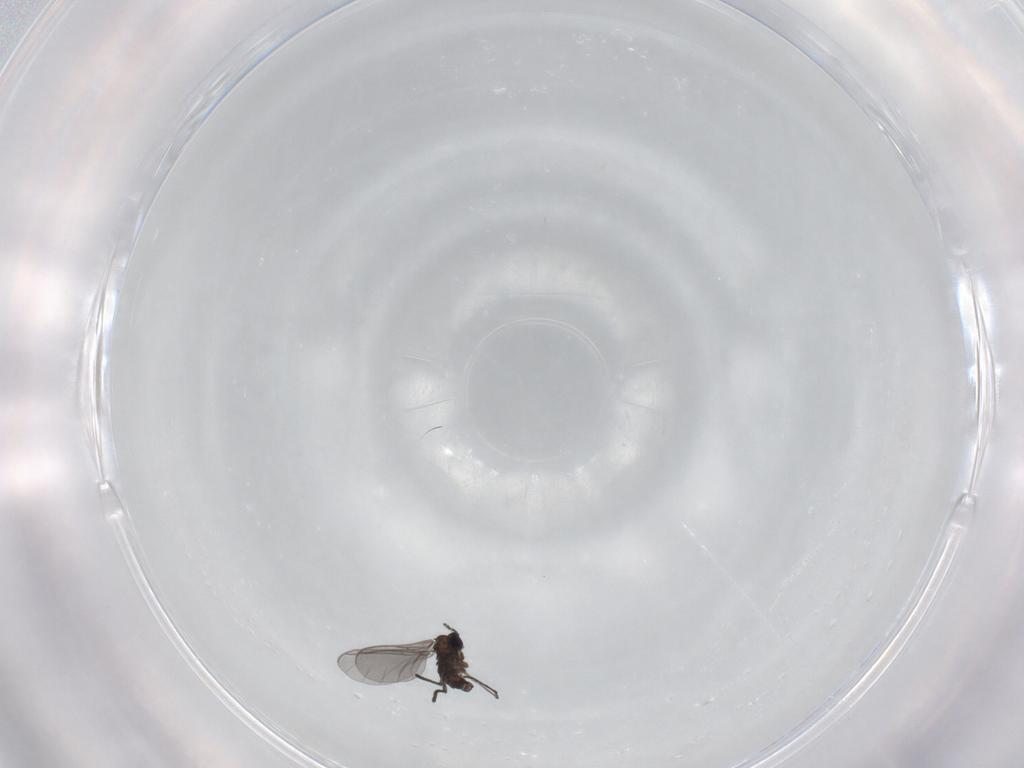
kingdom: Animalia
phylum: Arthropoda
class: Insecta
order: Diptera
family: Sciaridae
